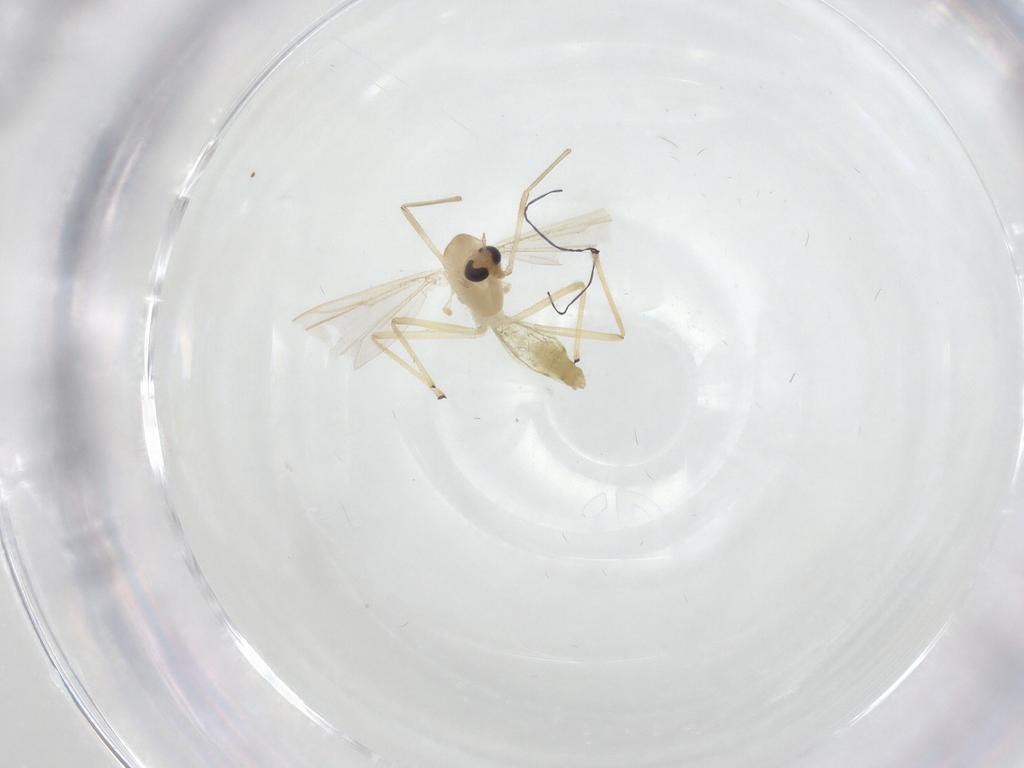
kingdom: Animalia
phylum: Arthropoda
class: Insecta
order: Diptera
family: Chironomidae
